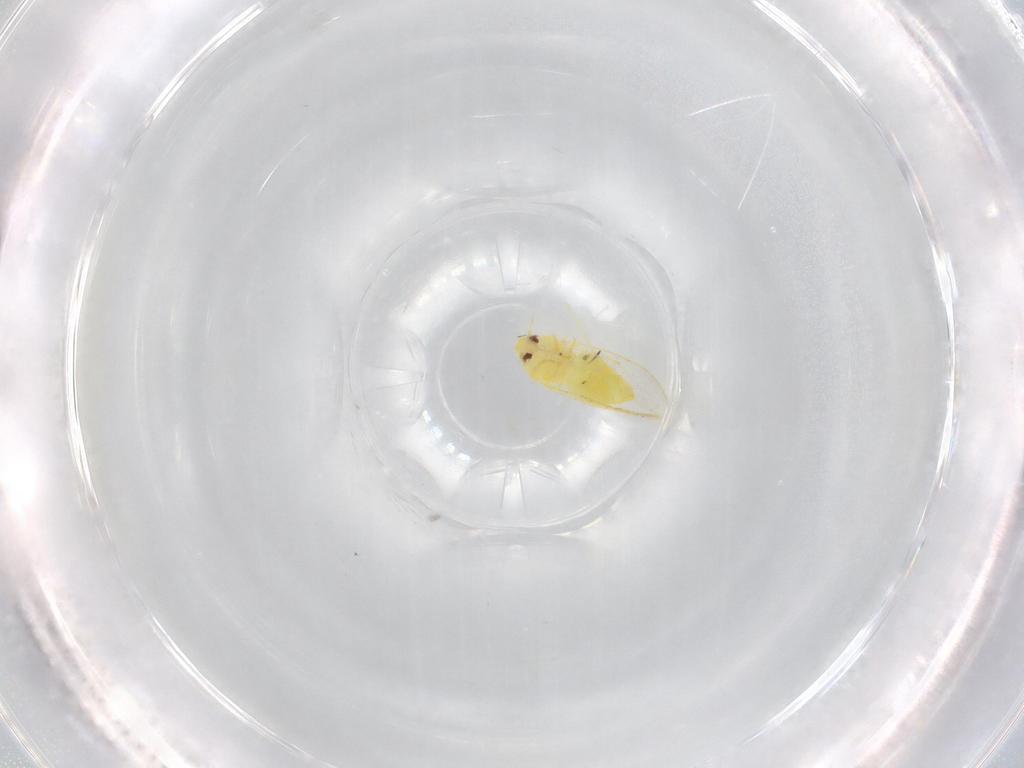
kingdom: Animalia
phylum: Arthropoda
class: Insecta
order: Hemiptera
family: Aleyrodidae
